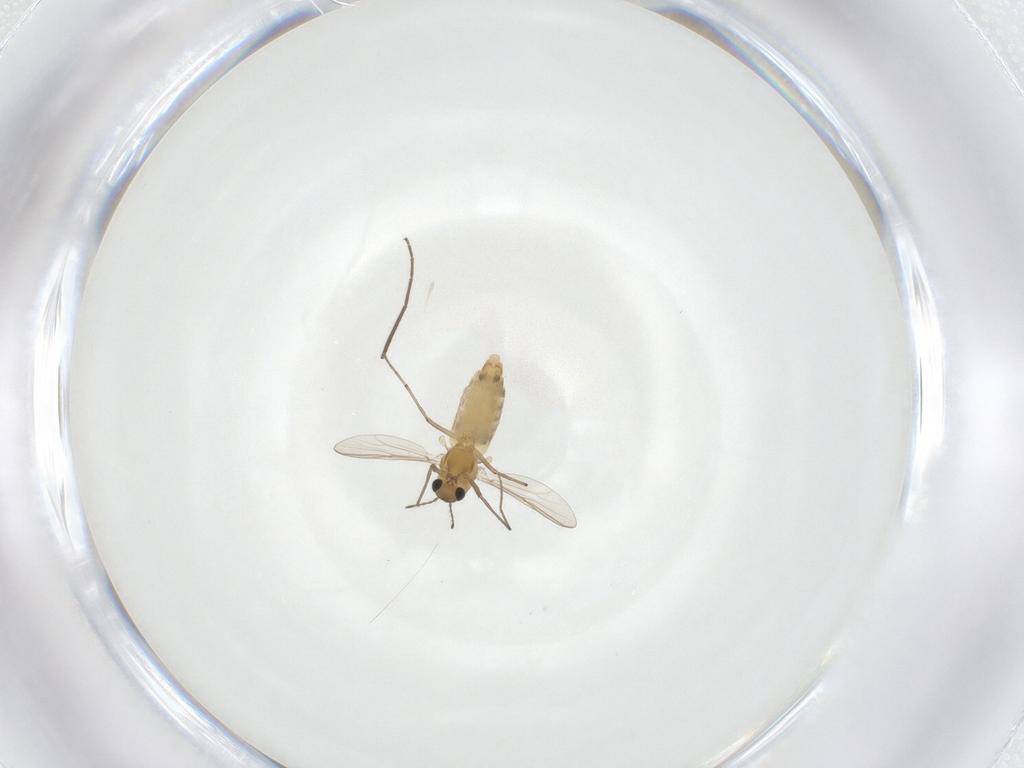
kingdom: Animalia
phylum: Arthropoda
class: Insecta
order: Diptera
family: Chironomidae
